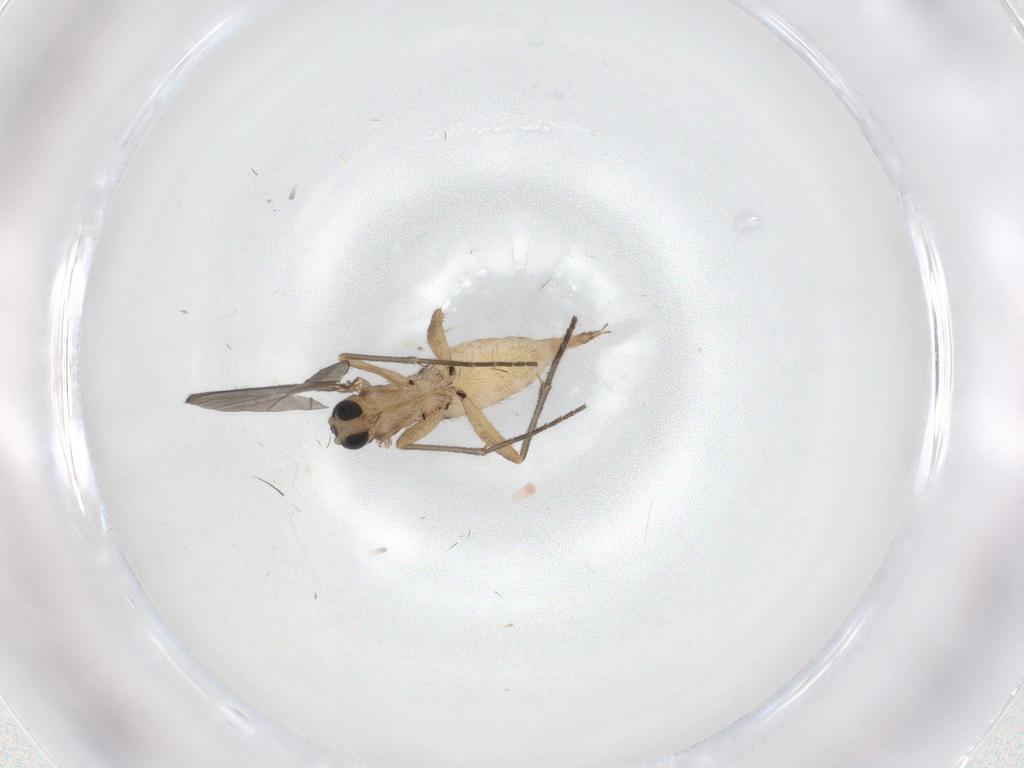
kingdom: Animalia
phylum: Arthropoda
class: Insecta
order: Diptera
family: Sciaridae
